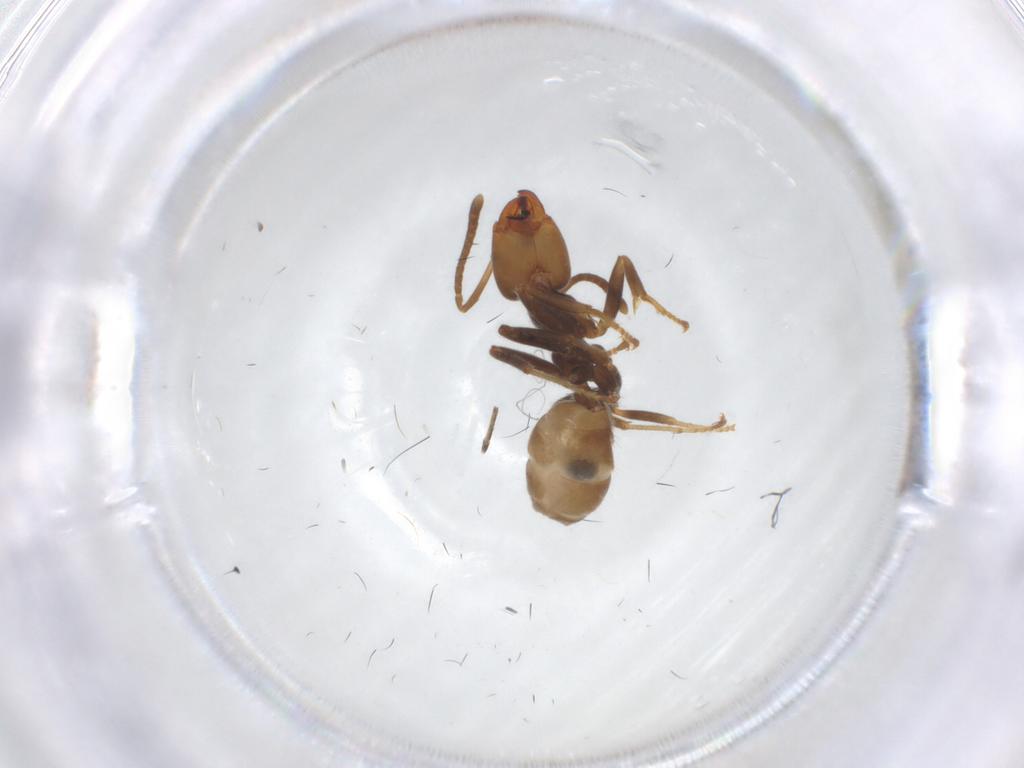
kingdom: Animalia
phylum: Arthropoda
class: Insecta
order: Hymenoptera
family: Formicidae
